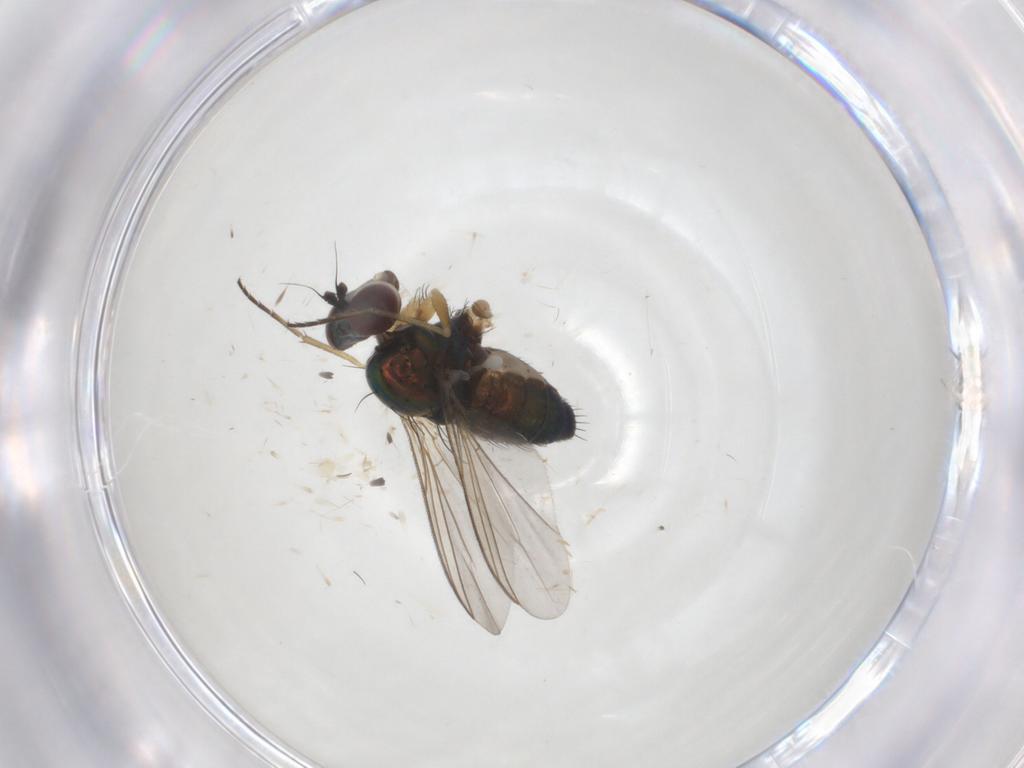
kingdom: Animalia
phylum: Arthropoda
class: Insecta
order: Diptera
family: Dolichopodidae
